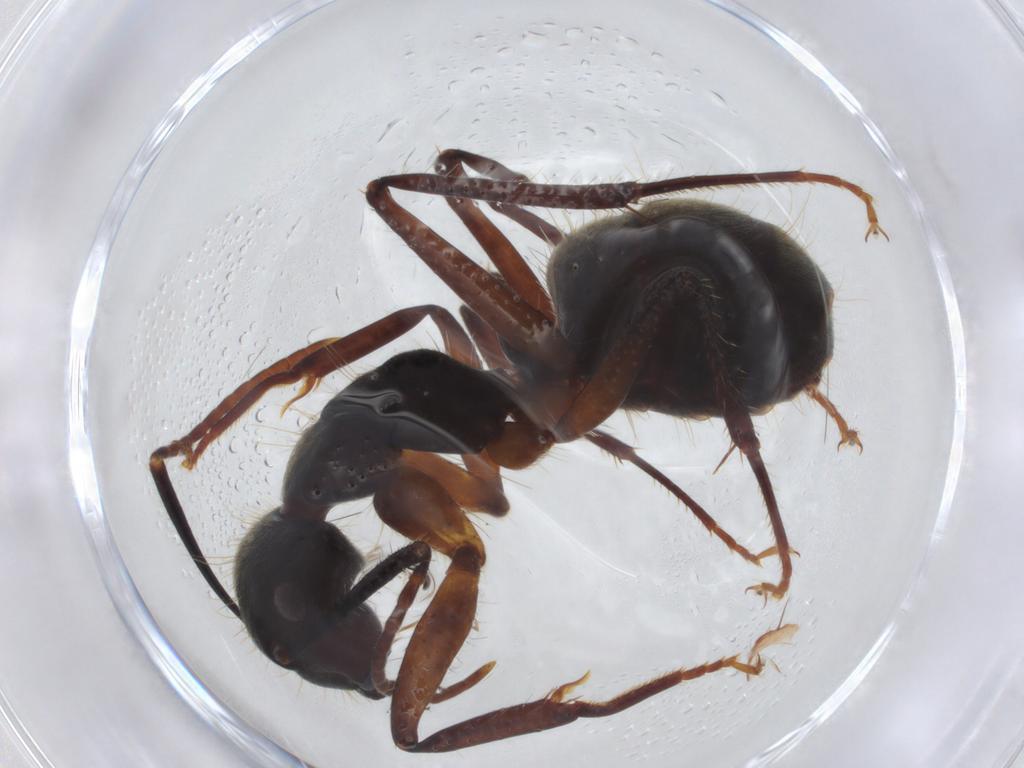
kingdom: Animalia
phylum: Arthropoda
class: Insecta
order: Hymenoptera
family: Formicidae
